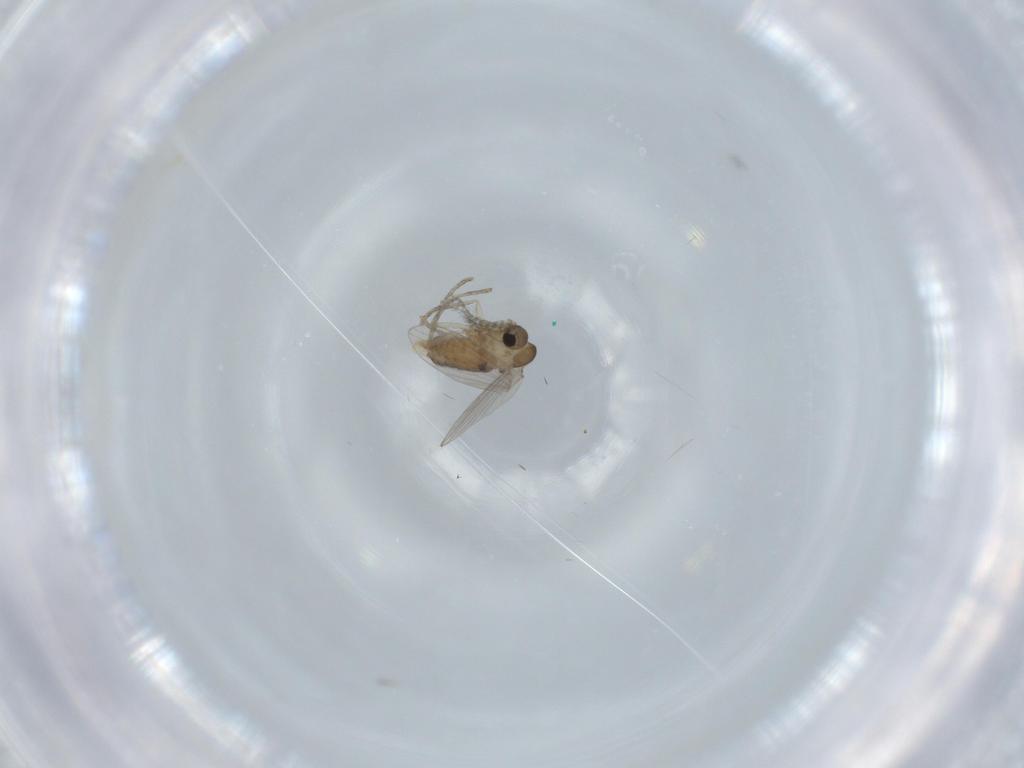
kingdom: Animalia
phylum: Arthropoda
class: Insecta
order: Diptera
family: Psychodidae
